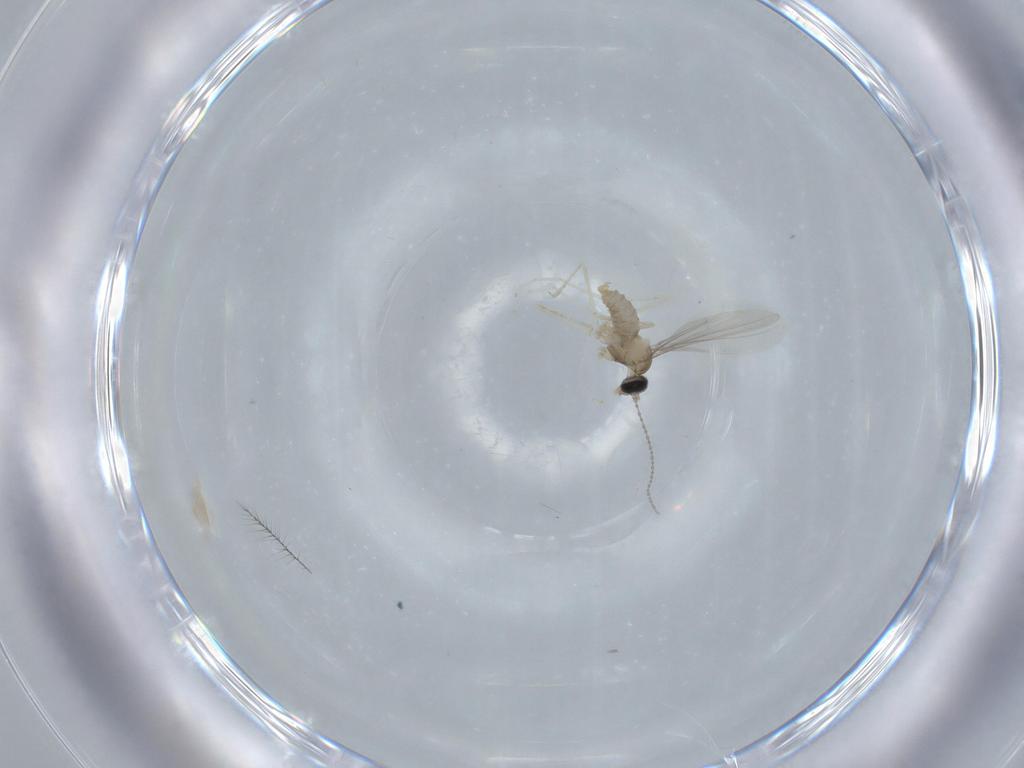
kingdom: Animalia
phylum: Arthropoda
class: Insecta
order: Diptera
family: Cecidomyiidae
